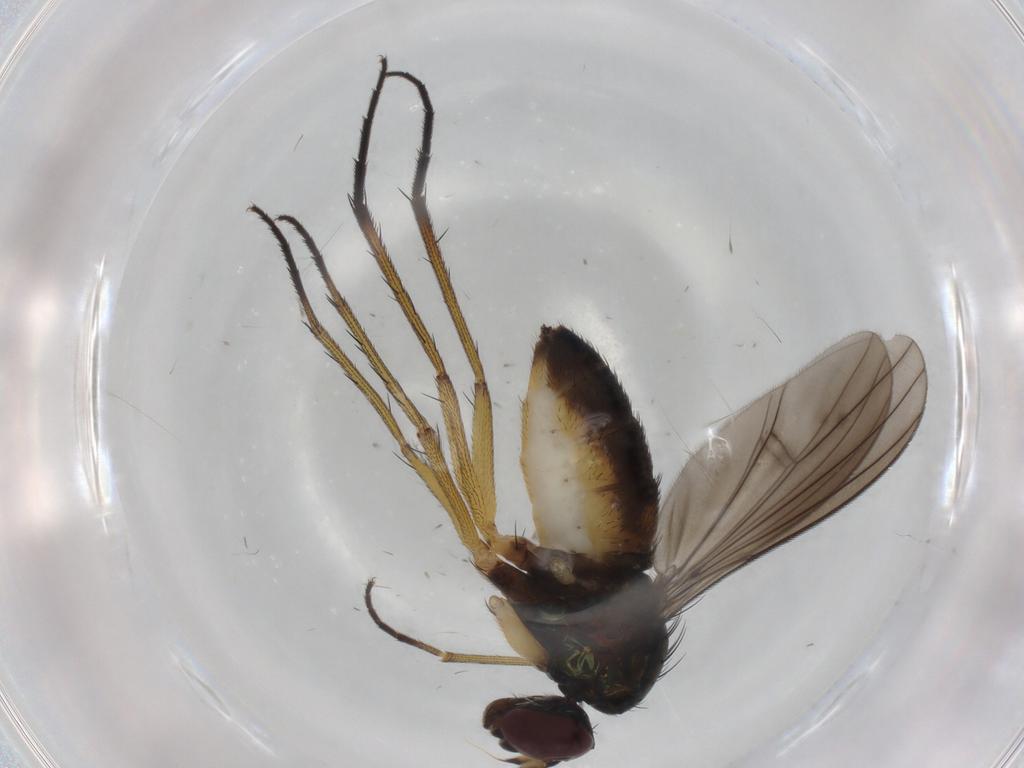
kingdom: Animalia
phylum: Arthropoda
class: Insecta
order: Diptera
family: Dolichopodidae
